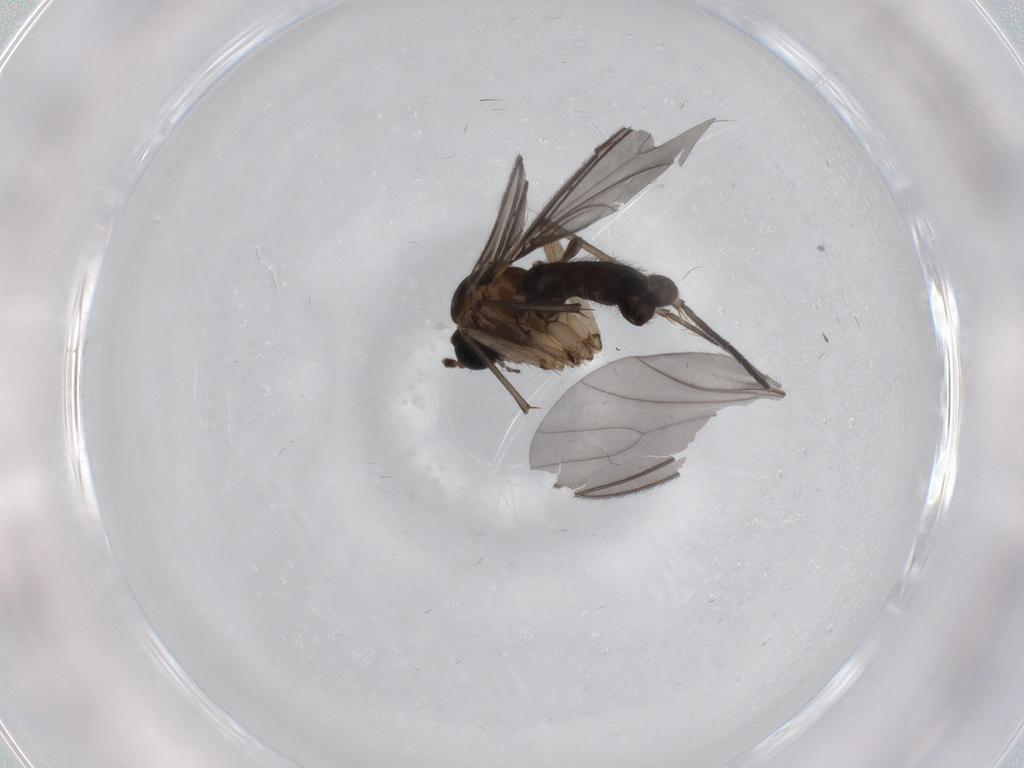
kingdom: Animalia
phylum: Arthropoda
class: Insecta
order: Diptera
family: Sciaridae
